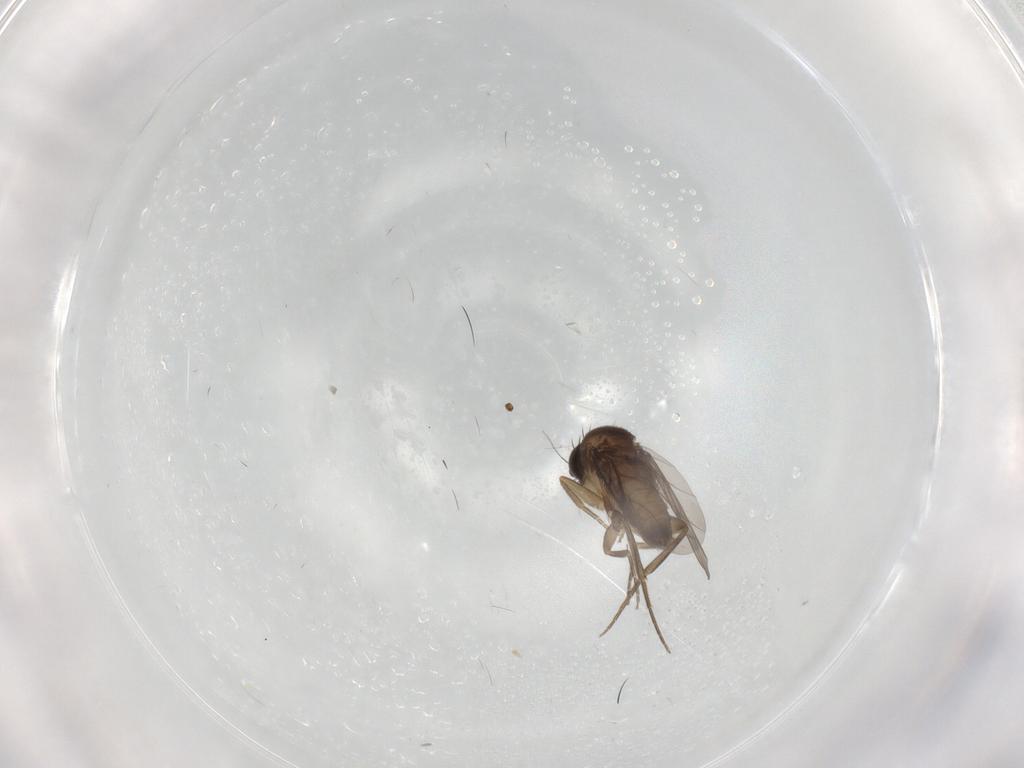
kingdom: Animalia
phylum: Arthropoda
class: Insecta
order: Diptera
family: Phoridae
